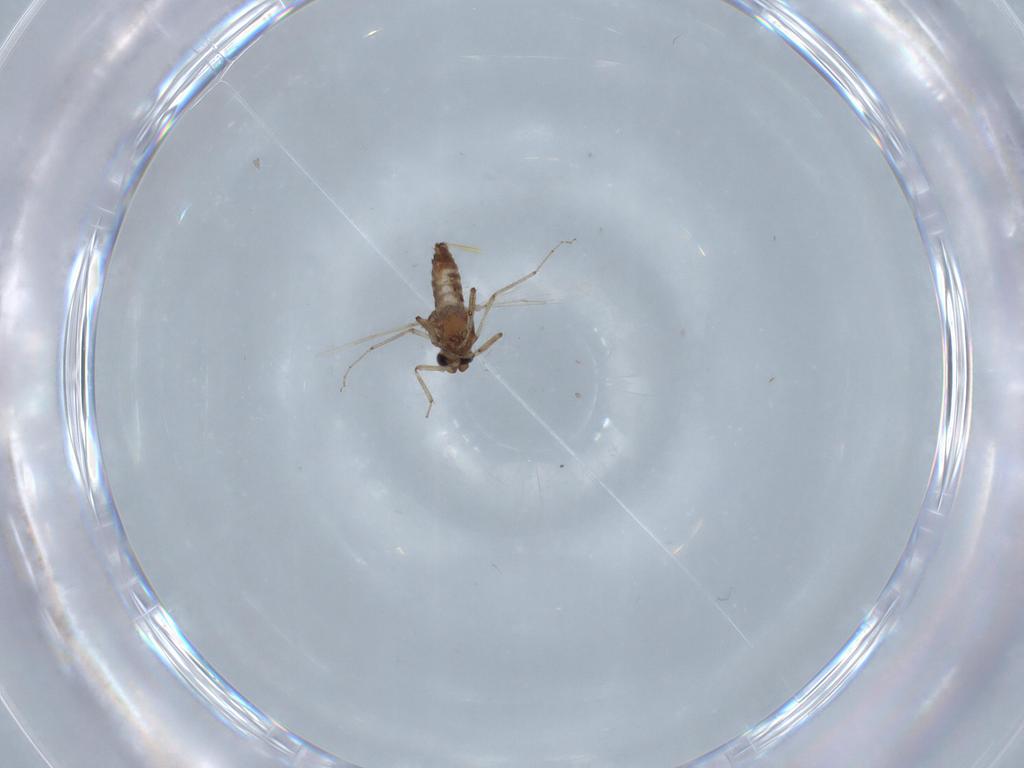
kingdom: Animalia
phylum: Arthropoda
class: Insecta
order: Diptera
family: Ceratopogonidae
